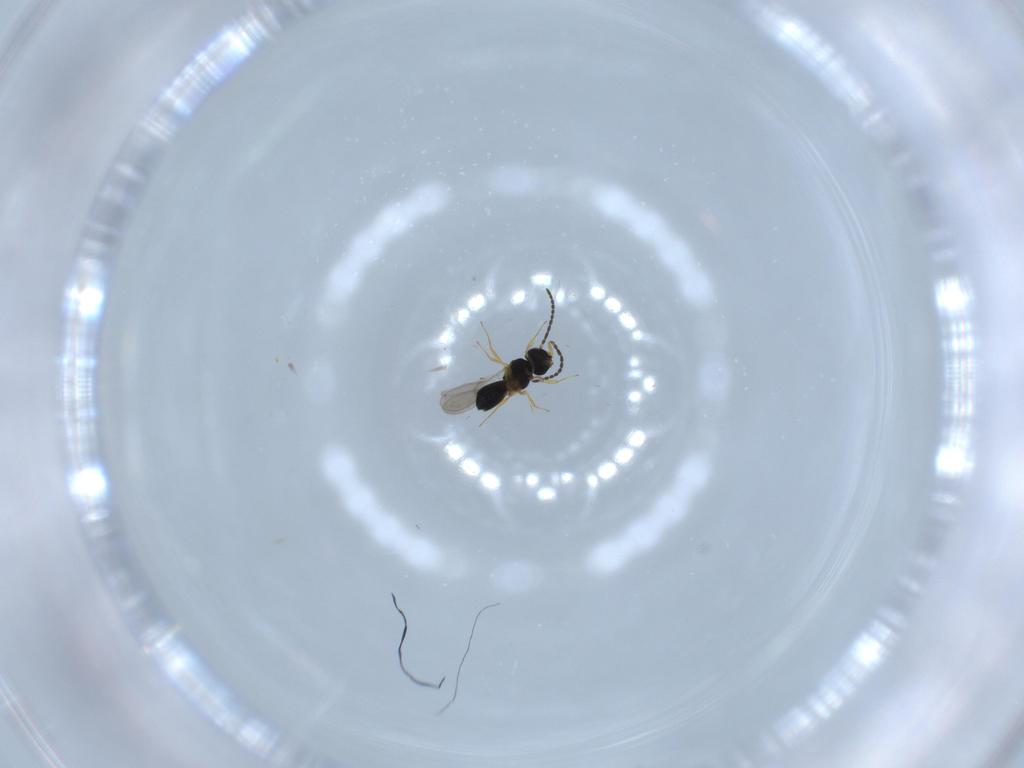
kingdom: Animalia
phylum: Arthropoda
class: Insecta
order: Hymenoptera
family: Scelionidae
